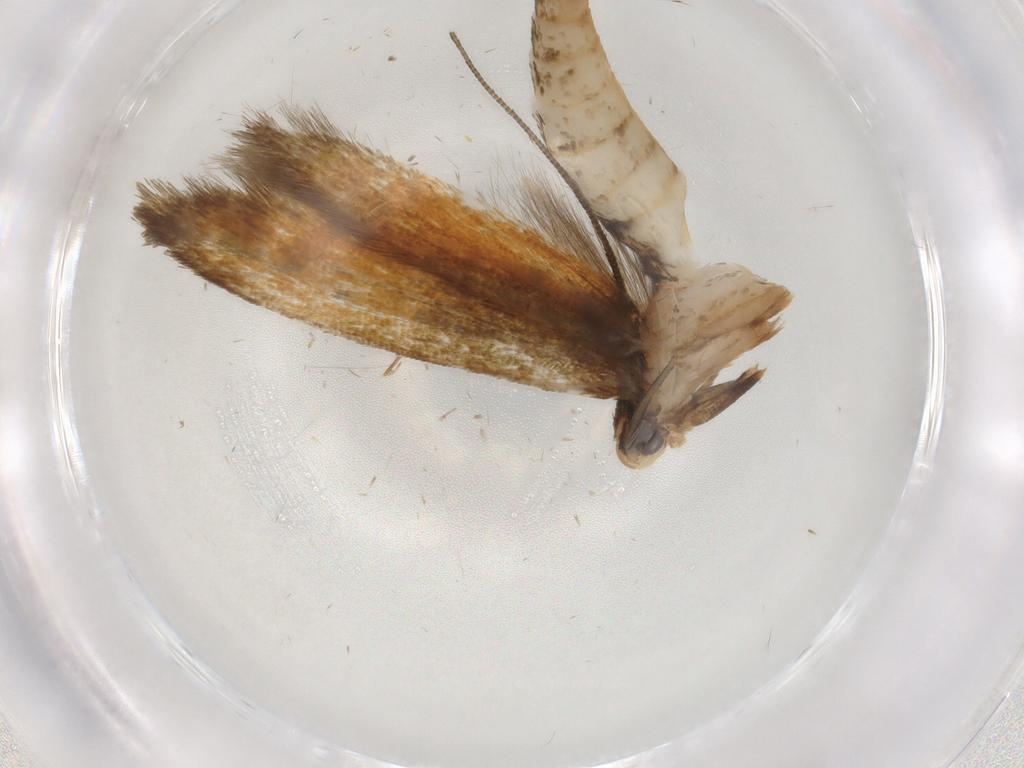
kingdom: Animalia
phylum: Arthropoda
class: Insecta
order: Lepidoptera
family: Tineidae
